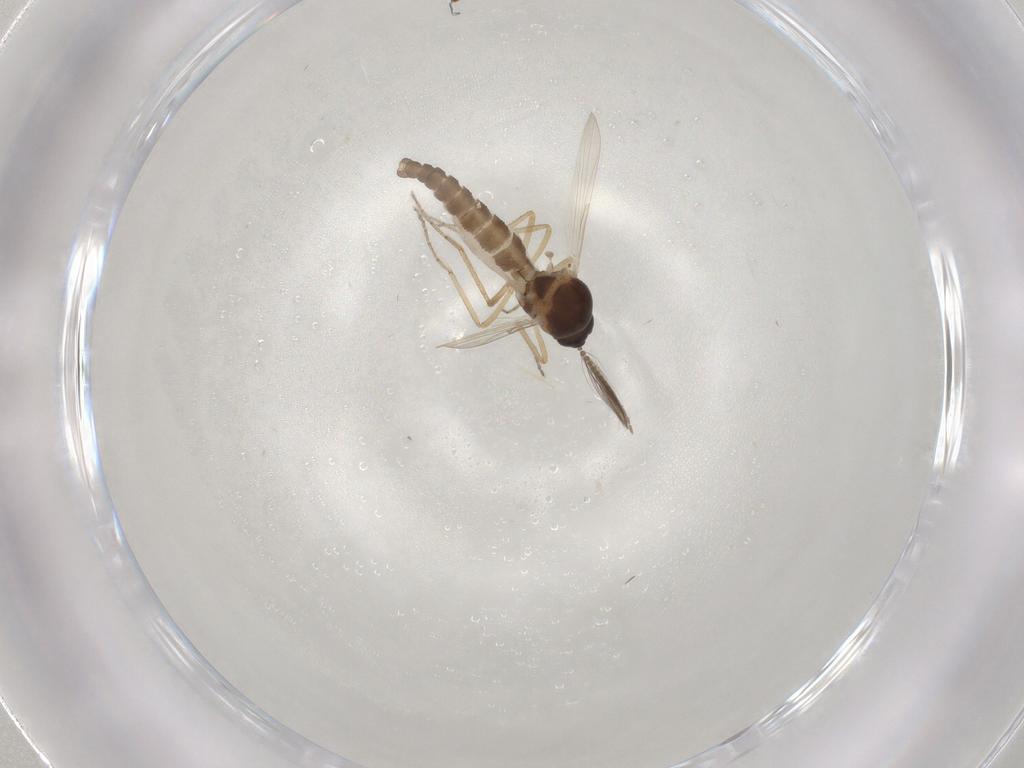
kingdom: Animalia
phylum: Arthropoda
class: Insecta
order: Diptera
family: Ceratopogonidae
